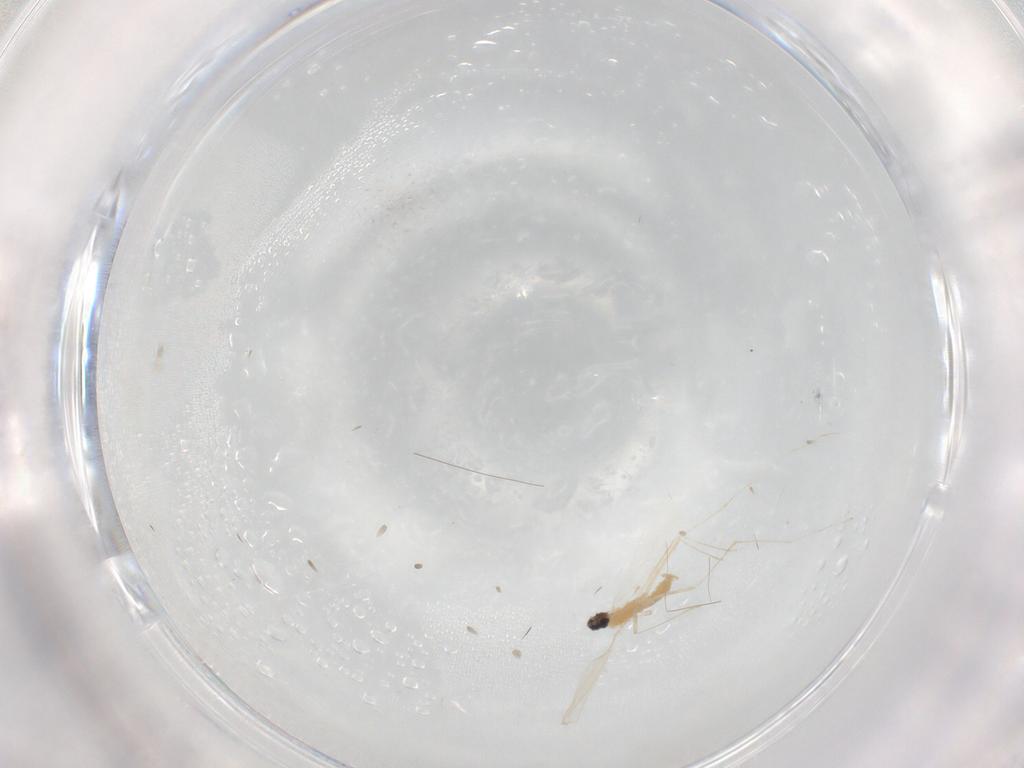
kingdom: Animalia
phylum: Arthropoda
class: Insecta
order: Diptera
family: Cecidomyiidae
